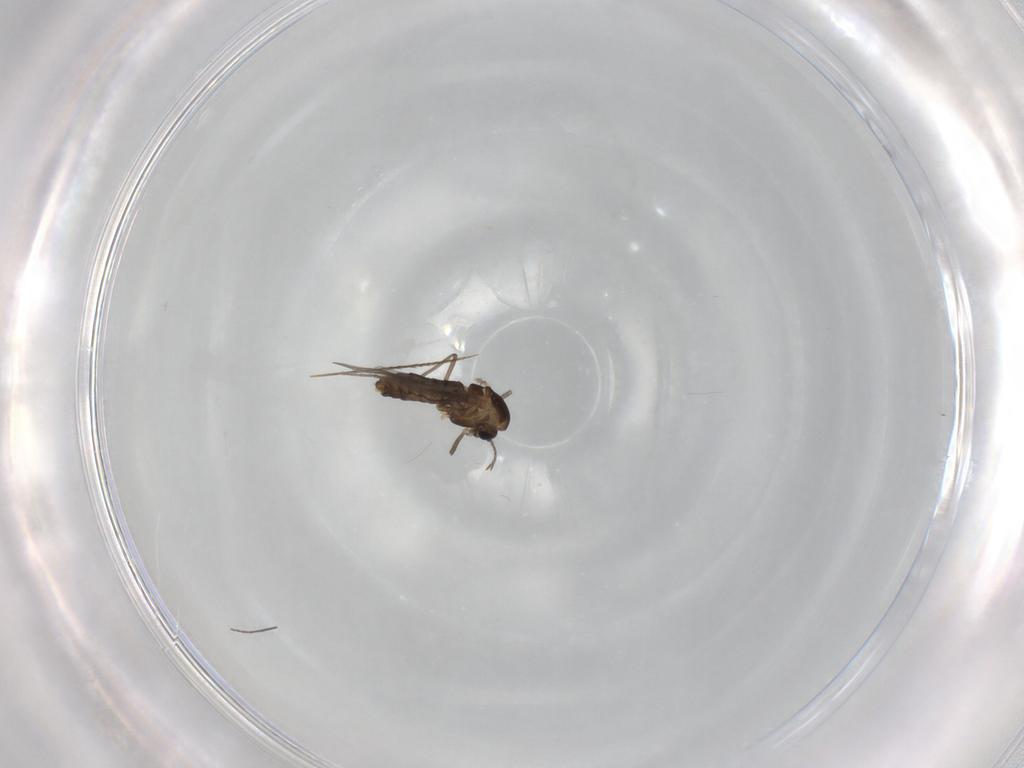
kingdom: Animalia
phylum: Arthropoda
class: Insecta
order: Diptera
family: Chironomidae
